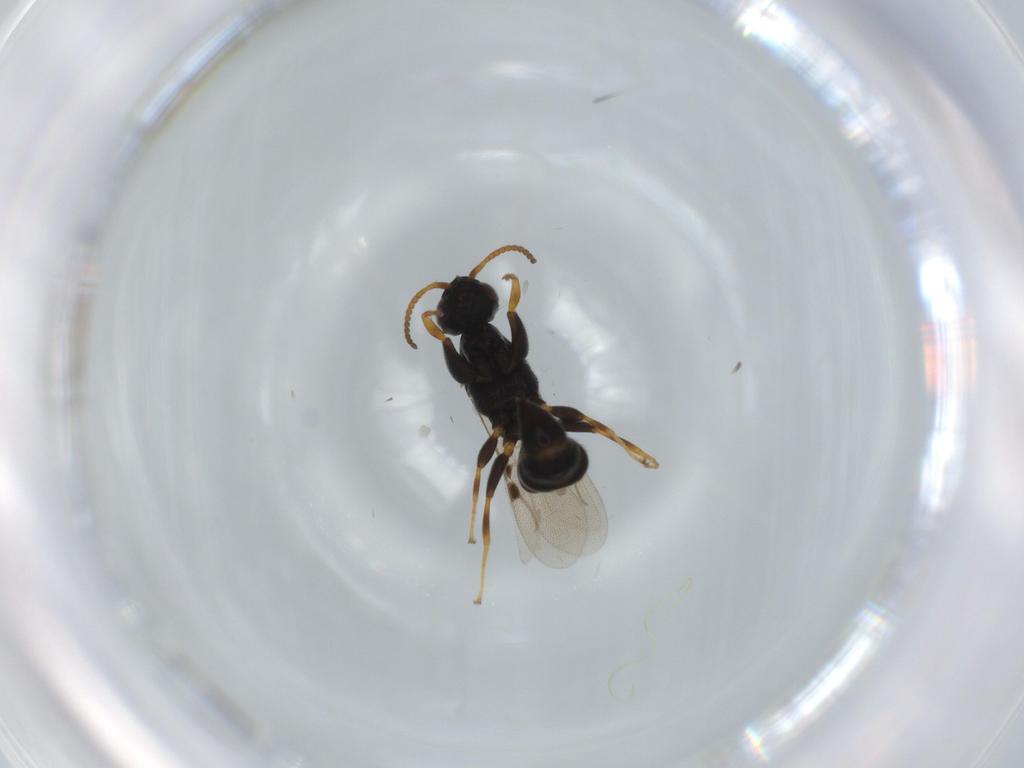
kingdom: Animalia
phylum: Arthropoda
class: Insecta
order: Hymenoptera
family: Bethylidae
